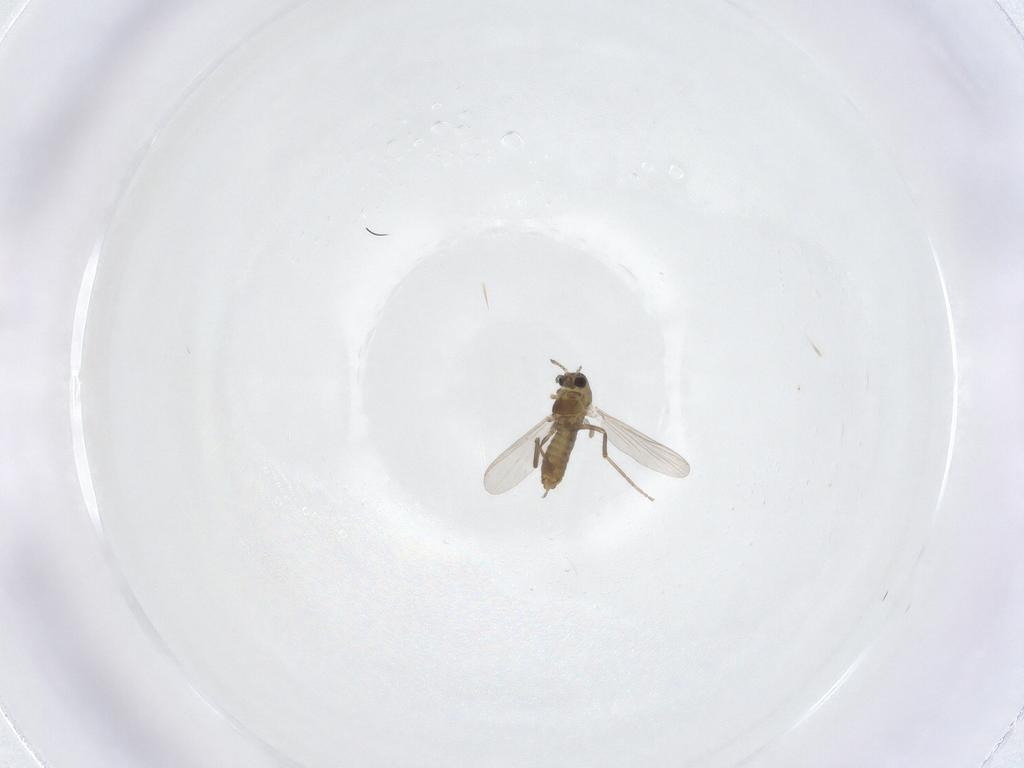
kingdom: Animalia
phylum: Arthropoda
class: Insecta
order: Diptera
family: Chironomidae
